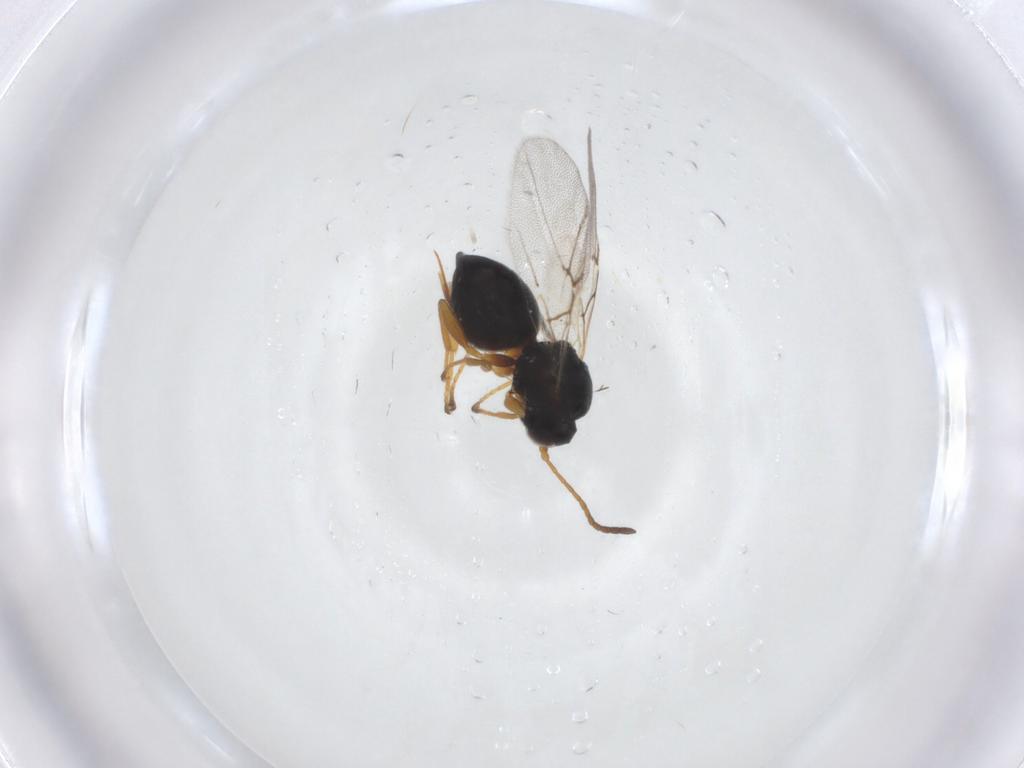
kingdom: Animalia
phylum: Arthropoda
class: Insecta
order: Hymenoptera
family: Cynipidae
